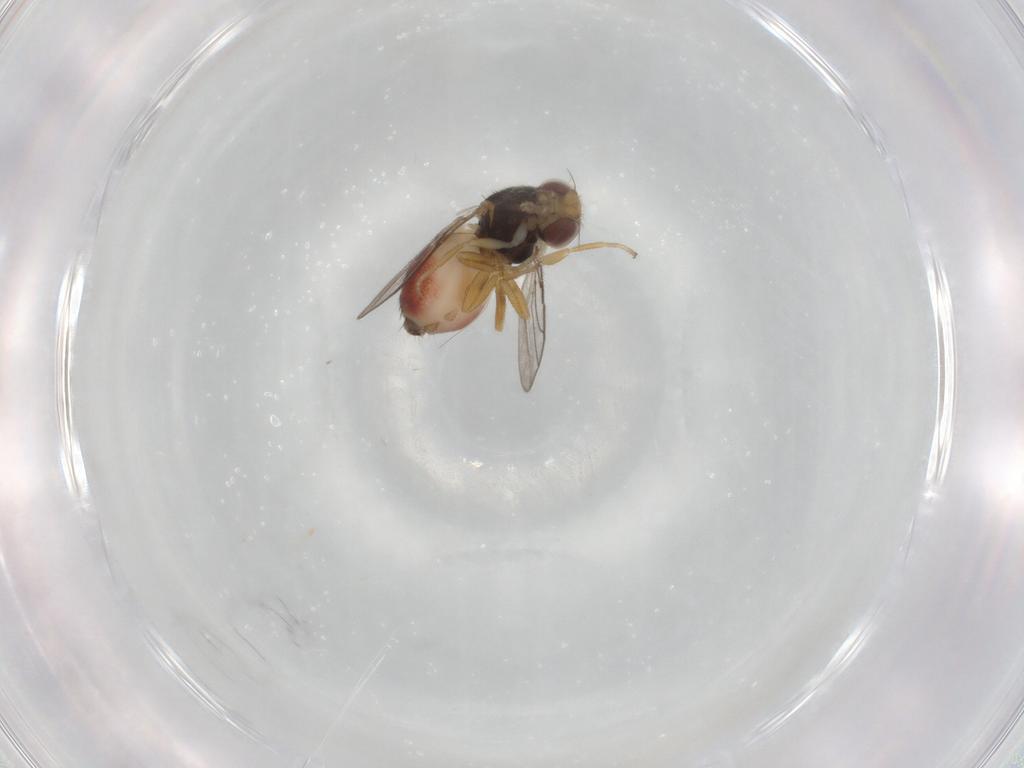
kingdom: Animalia
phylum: Arthropoda
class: Insecta
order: Diptera
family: Chloropidae
